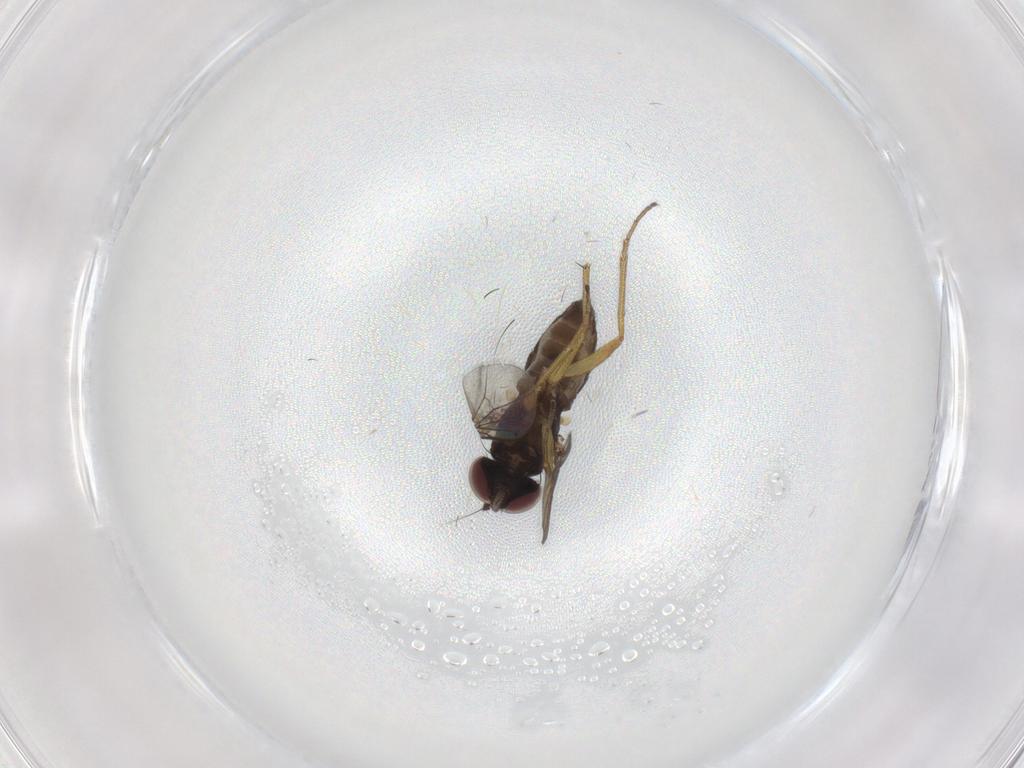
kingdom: Animalia
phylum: Arthropoda
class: Insecta
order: Diptera
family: Dolichopodidae
